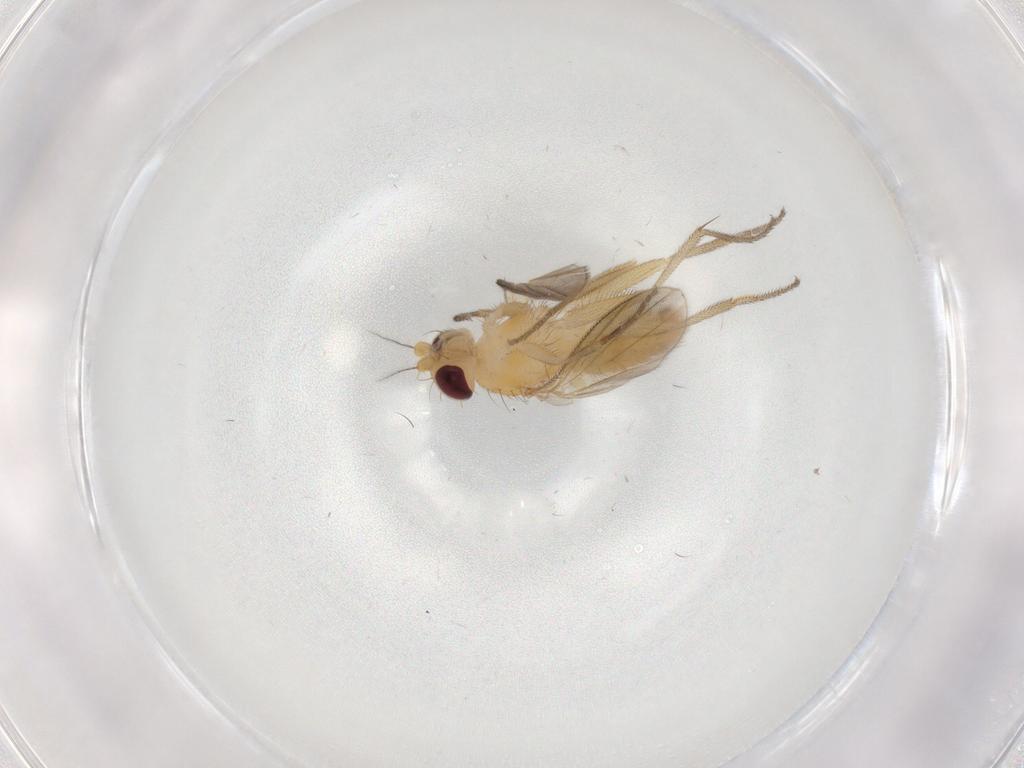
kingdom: Animalia
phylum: Arthropoda
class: Insecta
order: Diptera
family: Clusiidae
